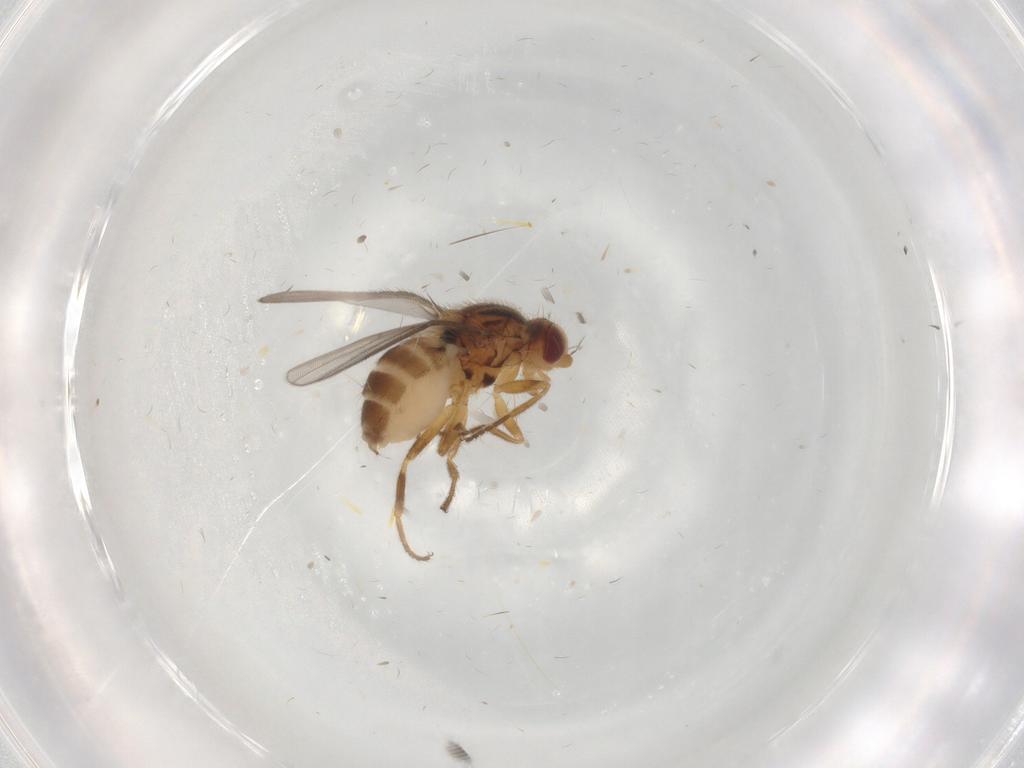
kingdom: Animalia
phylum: Arthropoda
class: Insecta
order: Diptera
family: Chloropidae
